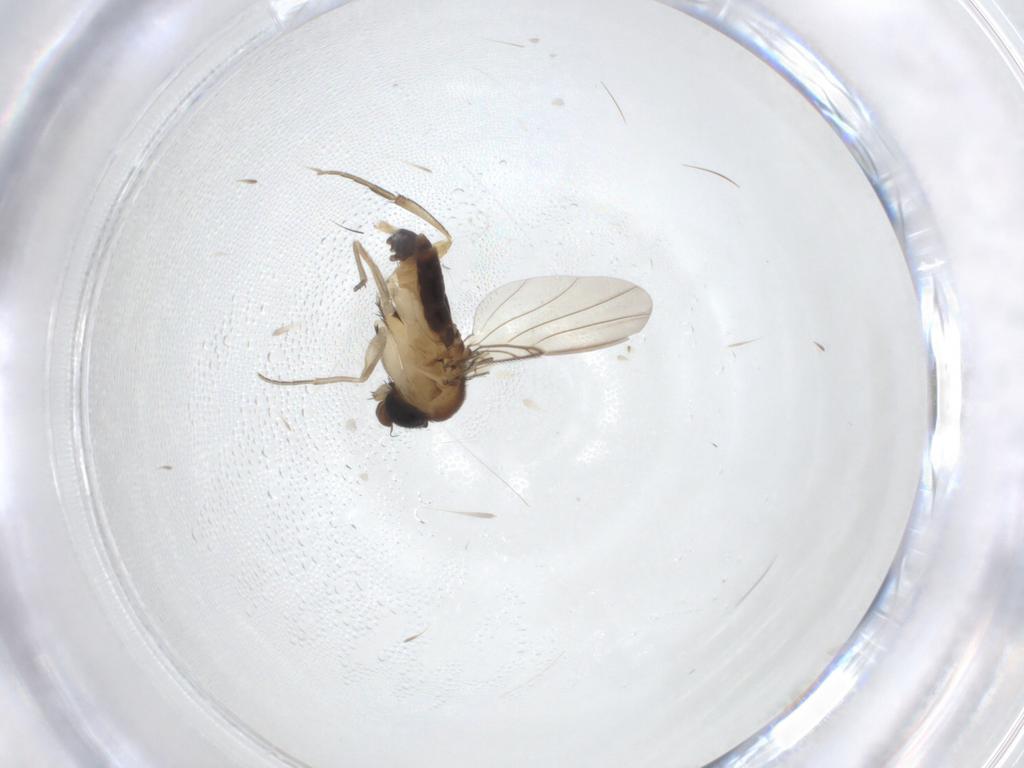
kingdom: Animalia
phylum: Arthropoda
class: Insecta
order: Diptera
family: Phoridae
